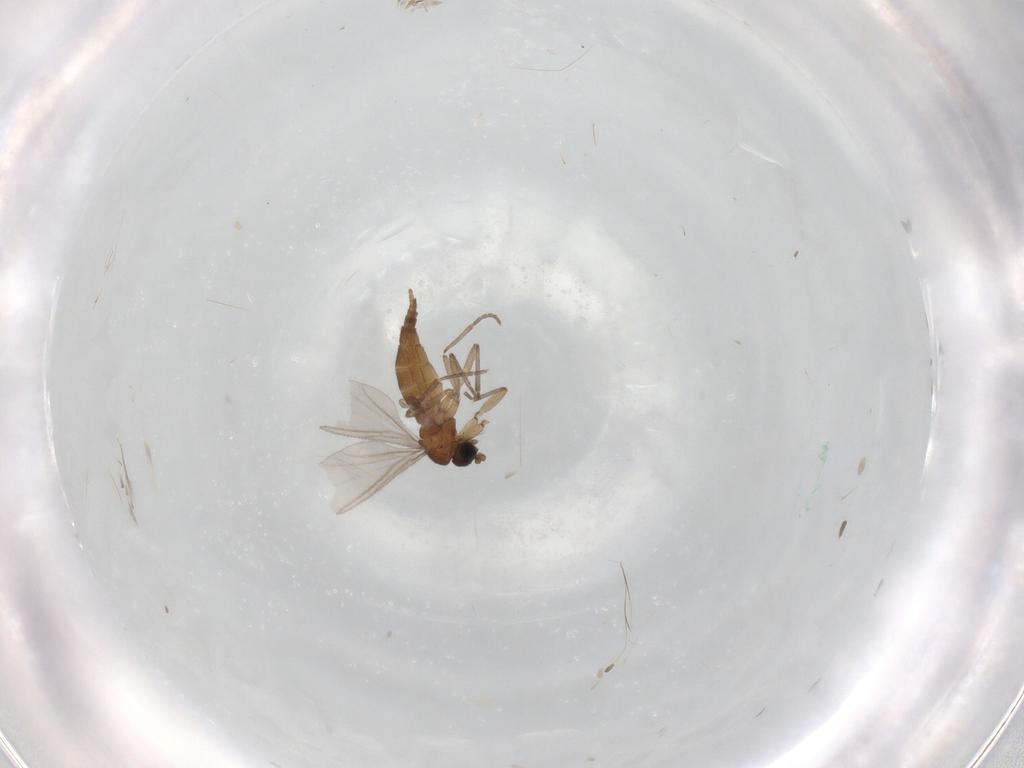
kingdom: Animalia
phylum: Arthropoda
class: Insecta
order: Diptera
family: Sciaridae
